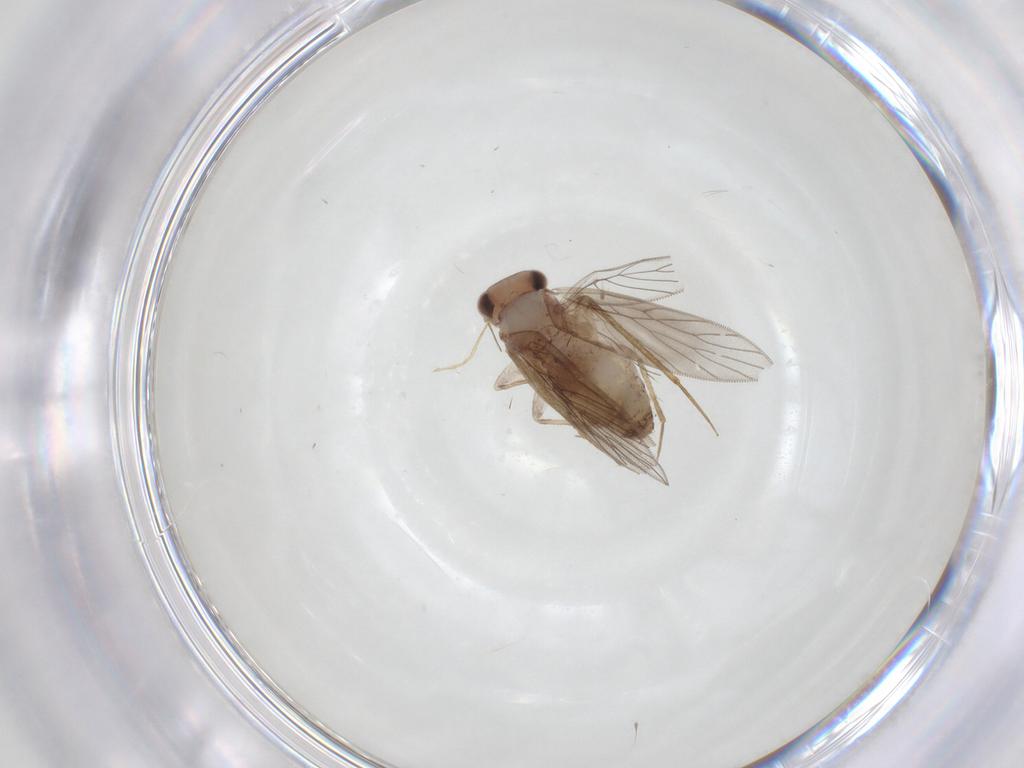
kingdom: Animalia
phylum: Arthropoda
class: Insecta
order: Psocodea
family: Lepidopsocidae
